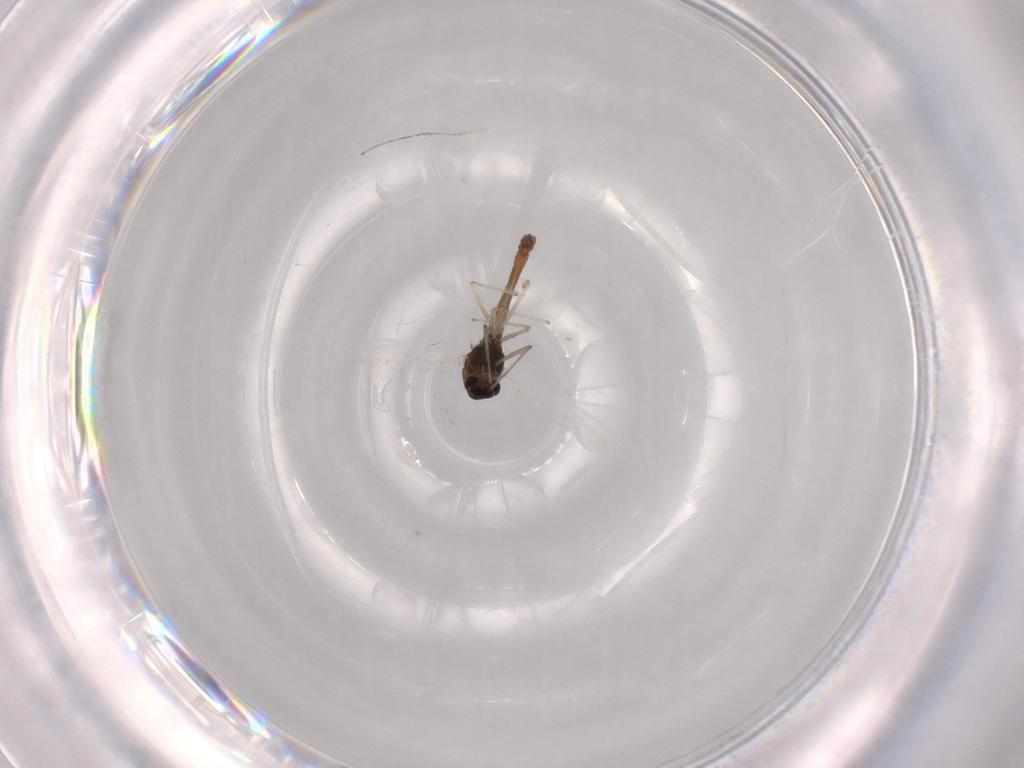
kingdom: Animalia
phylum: Arthropoda
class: Insecta
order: Diptera
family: Chironomidae
